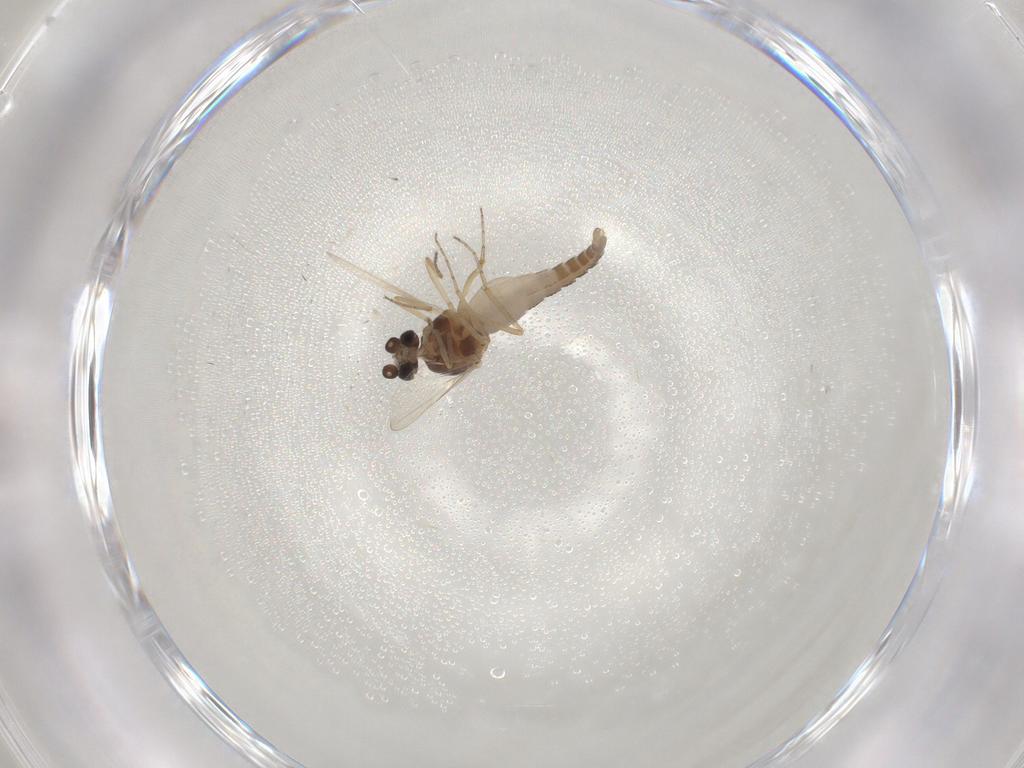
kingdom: Animalia
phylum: Arthropoda
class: Insecta
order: Diptera
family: Ceratopogonidae
